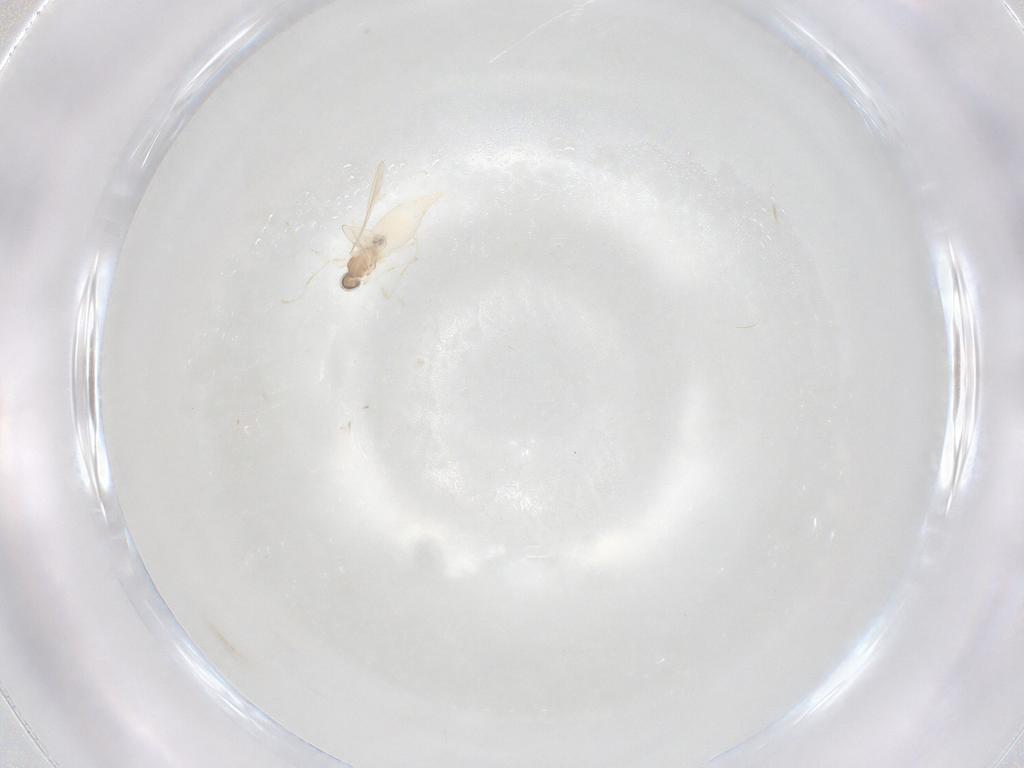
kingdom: Animalia
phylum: Arthropoda
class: Insecta
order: Diptera
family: Cecidomyiidae
